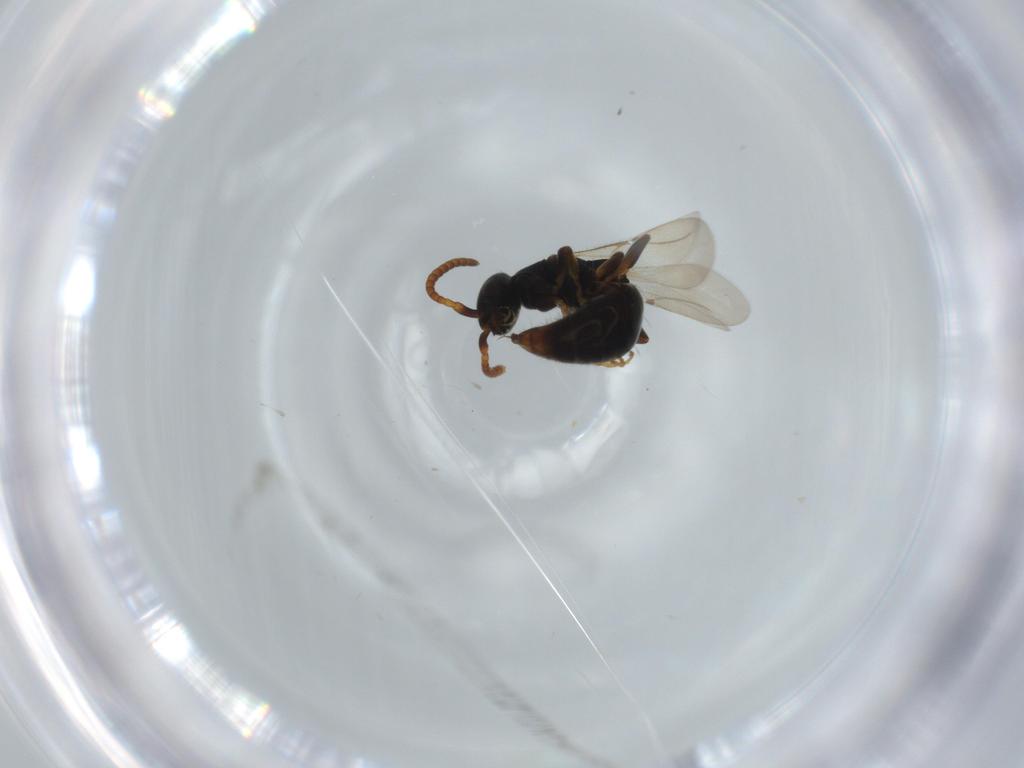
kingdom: Animalia
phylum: Arthropoda
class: Insecta
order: Hymenoptera
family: Bethylidae
